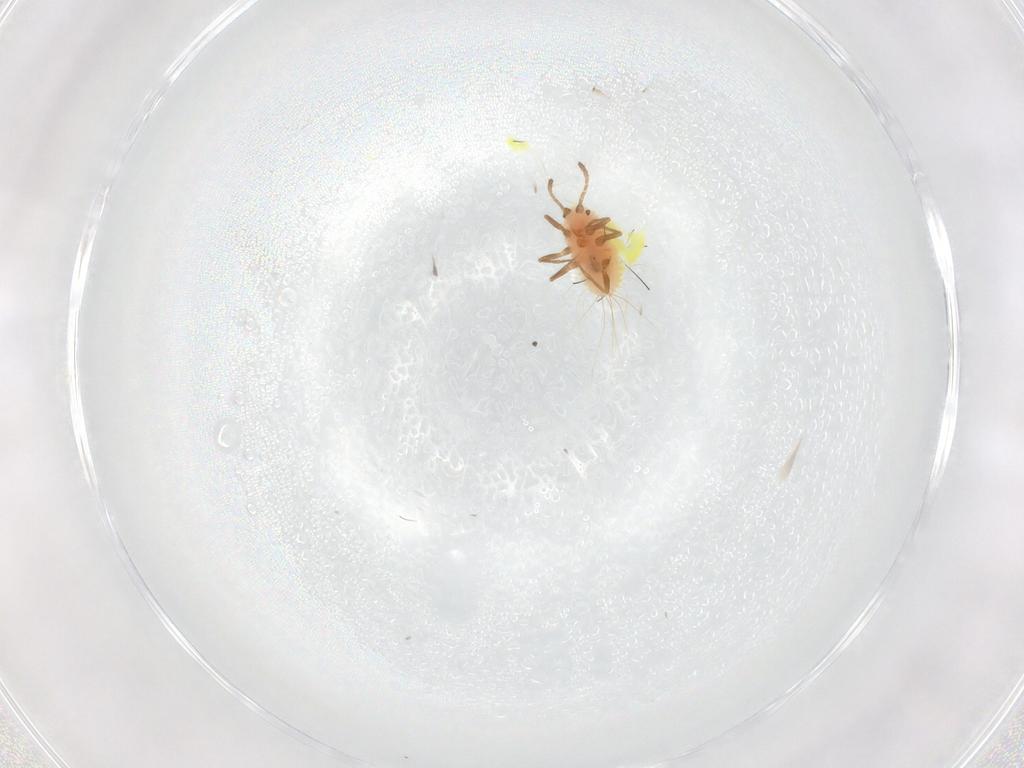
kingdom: Animalia
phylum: Arthropoda
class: Insecta
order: Hemiptera
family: Coccoidea_incertae_sedis
